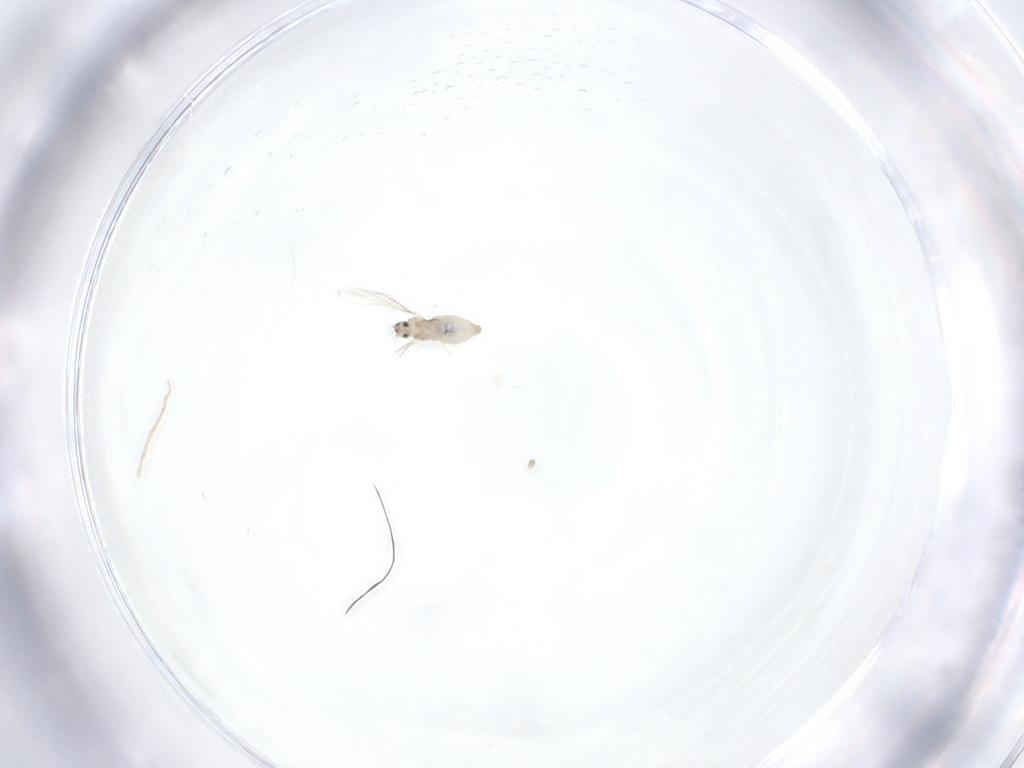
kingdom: Animalia
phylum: Arthropoda
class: Insecta
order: Diptera
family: Cecidomyiidae
